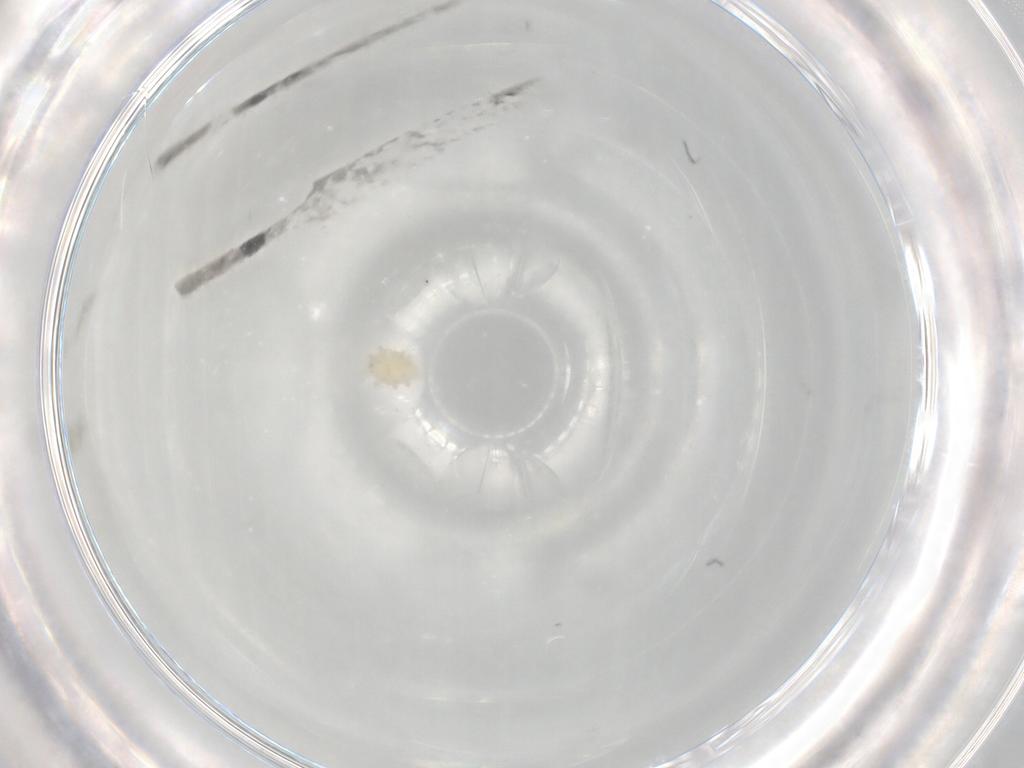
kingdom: Animalia
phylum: Arthropoda
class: Arachnida
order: Trombidiformes
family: Stigmaeidae
